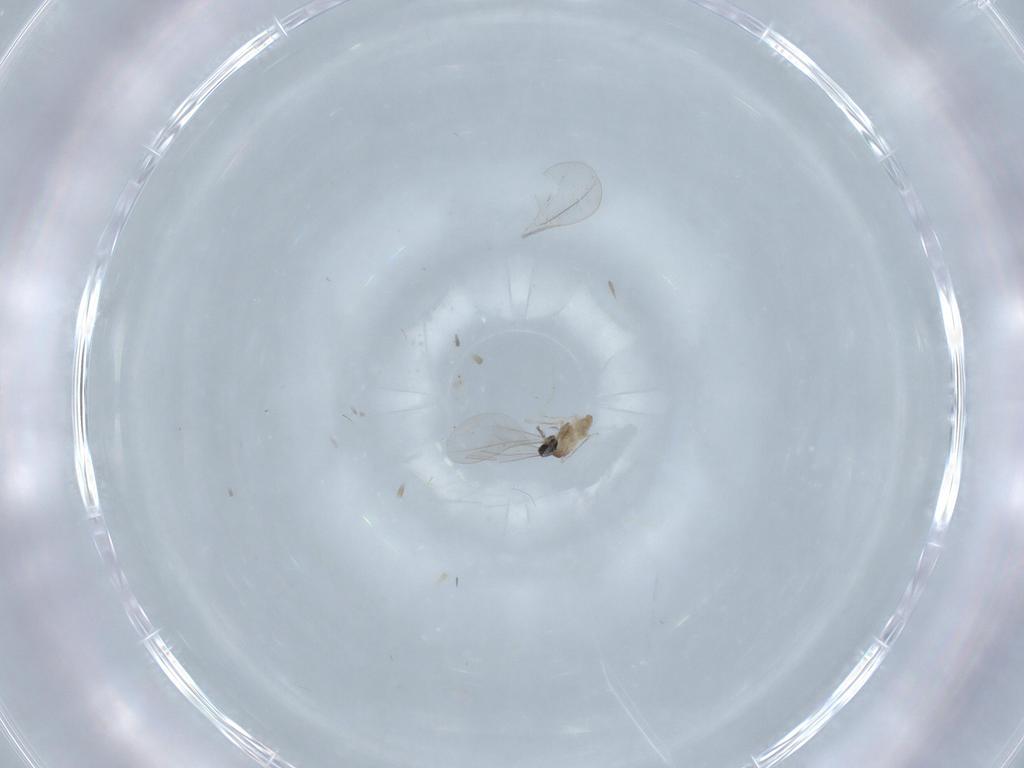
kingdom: Animalia
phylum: Arthropoda
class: Insecta
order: Diptera
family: Cecidomyiidae
